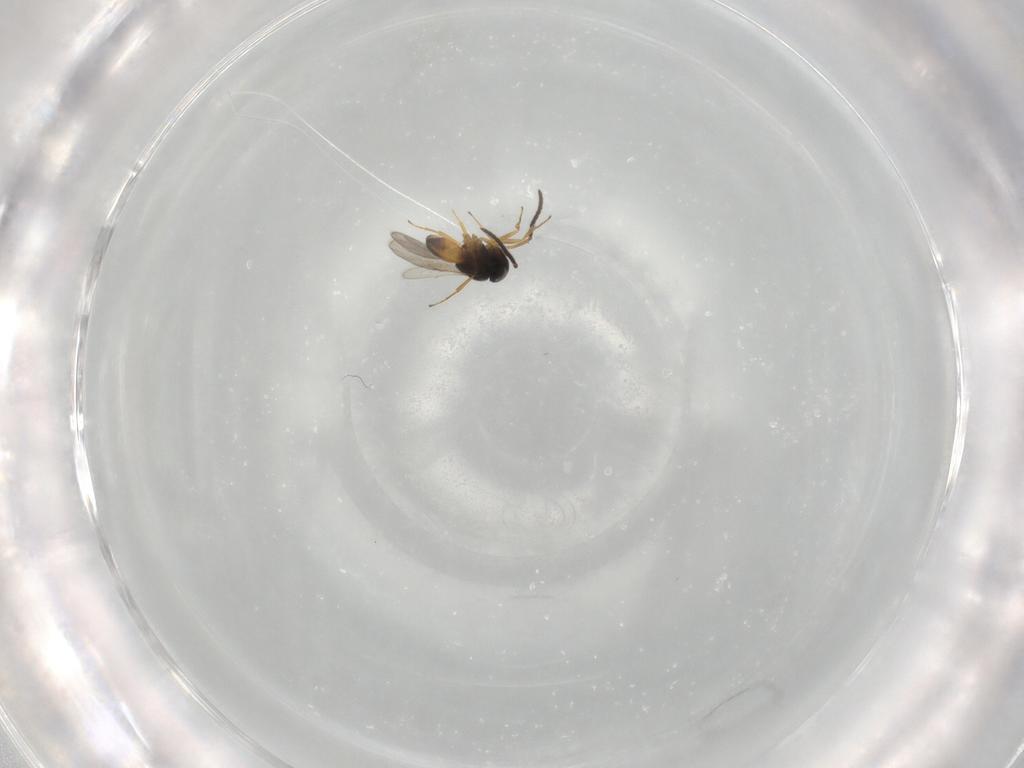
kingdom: Animalia
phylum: Arthropoda
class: Insecta
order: Hymenoptera
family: Scelionidae
